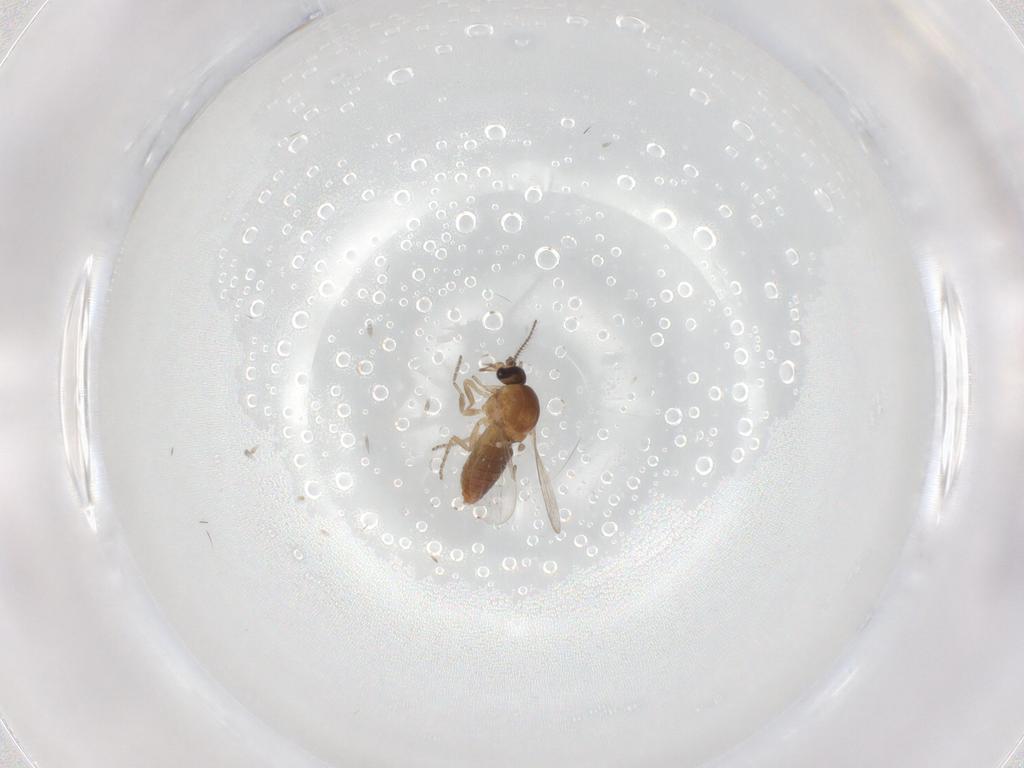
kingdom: Animalia
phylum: Arthropoda
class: Insecta
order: Diptera
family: Ceratopogonidae
